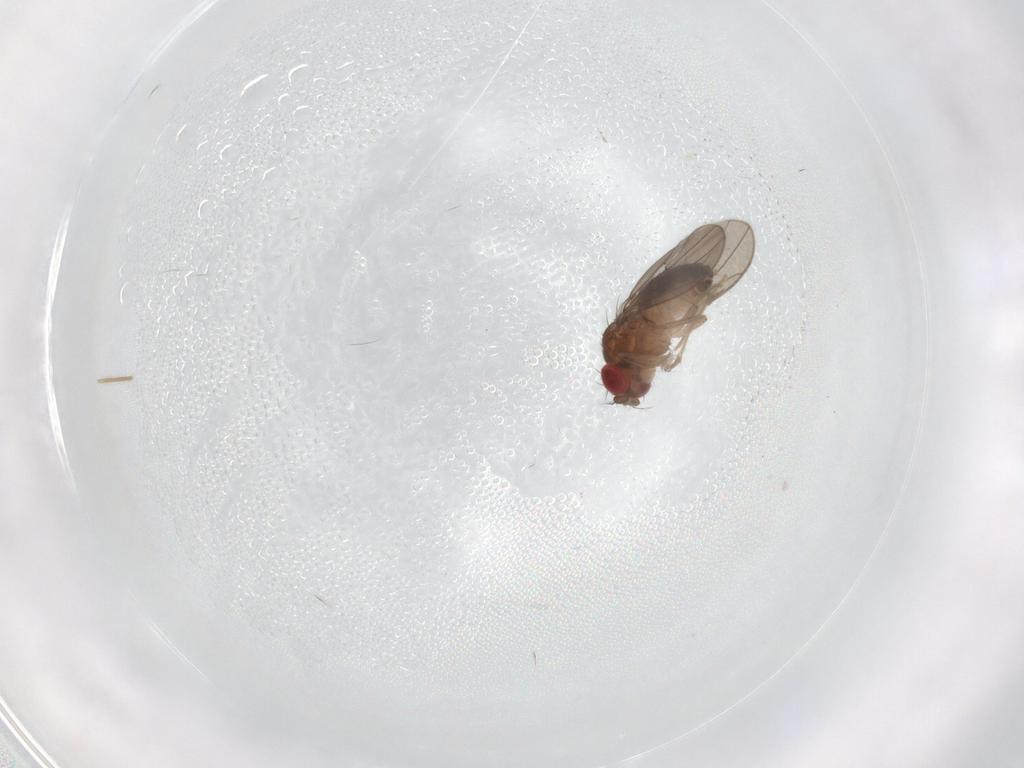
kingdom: Animalia
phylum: Arthropoda
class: Insecta
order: Diptera
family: Drosophilidae
